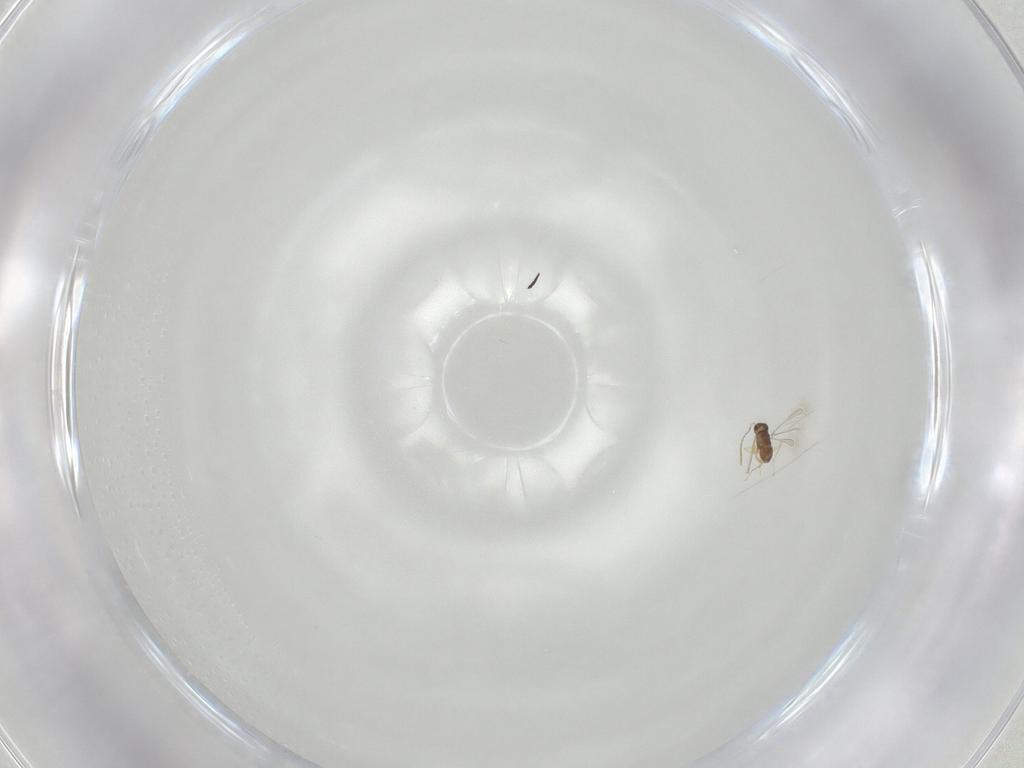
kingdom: Animalia
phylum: Arthropoda
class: Insecta
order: Hymenoptera
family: Mymaridae
